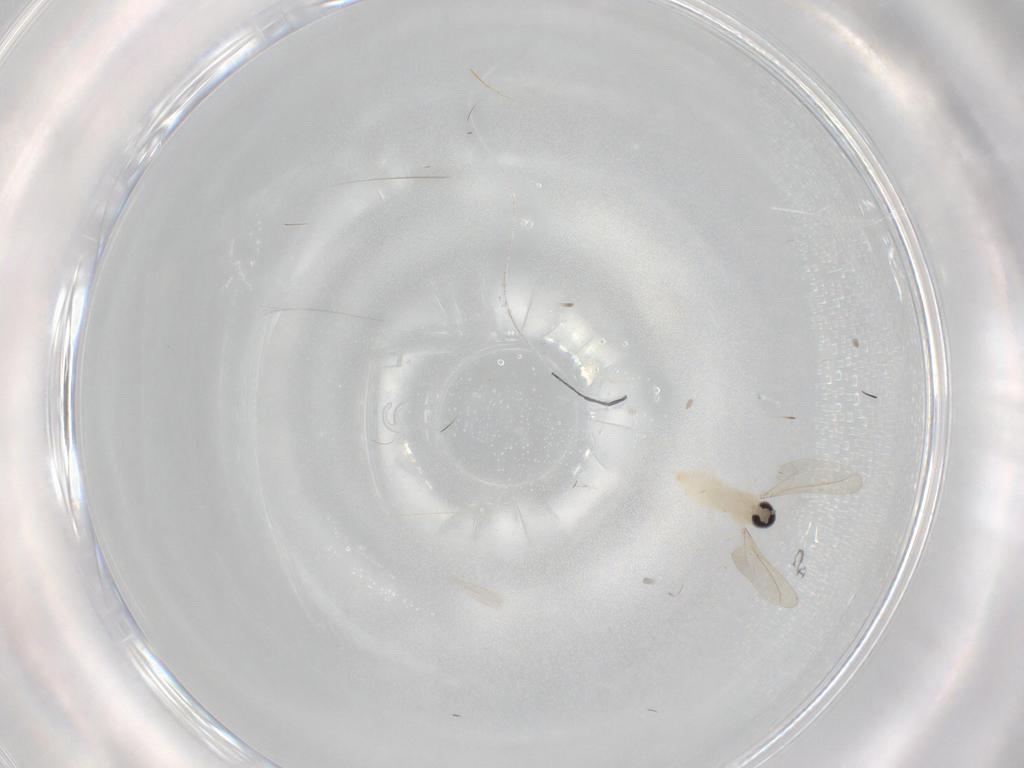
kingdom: Animalia
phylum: Arthropoda
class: Insecta
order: Diptera
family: Cecidomyiidae
